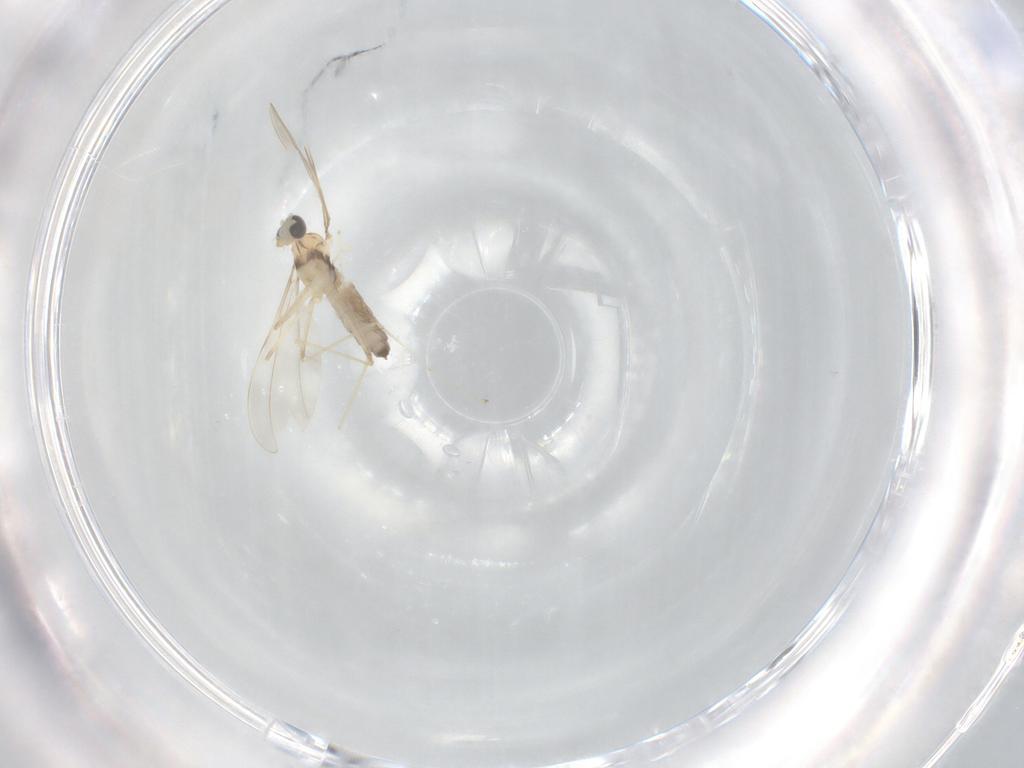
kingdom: Animalia
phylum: Arthropoda
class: Insecta
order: Diptera
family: Cecidomyiidae
